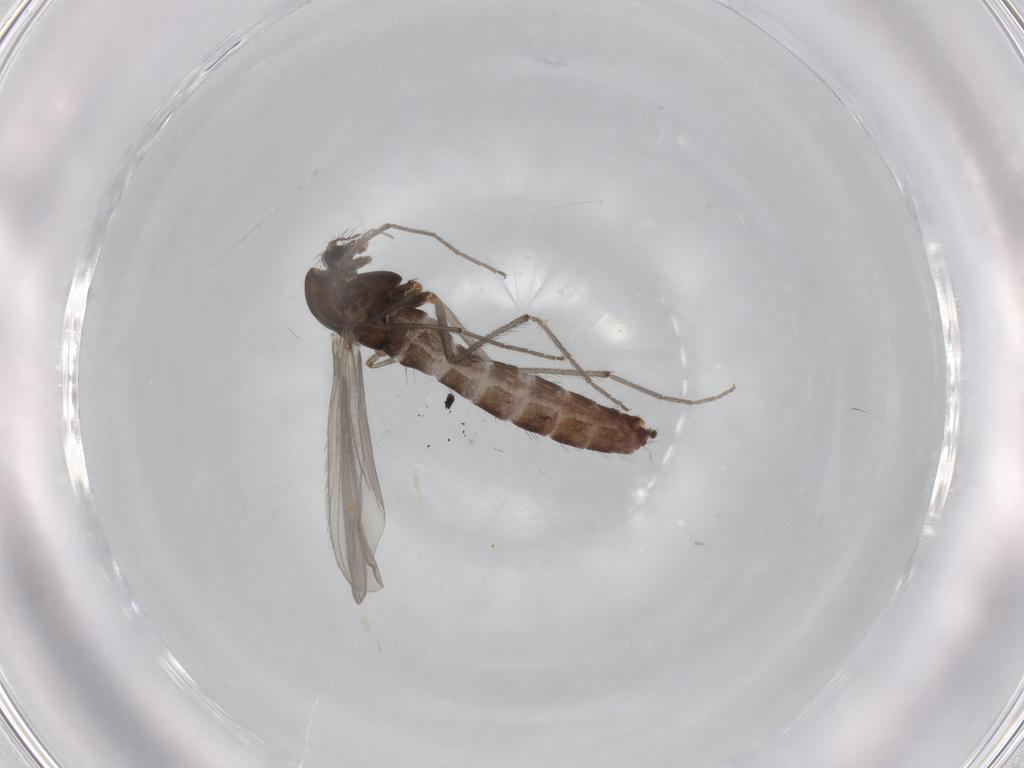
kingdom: Animalia
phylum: Arthropoda
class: Insecta
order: Diptera
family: Chironomidae
